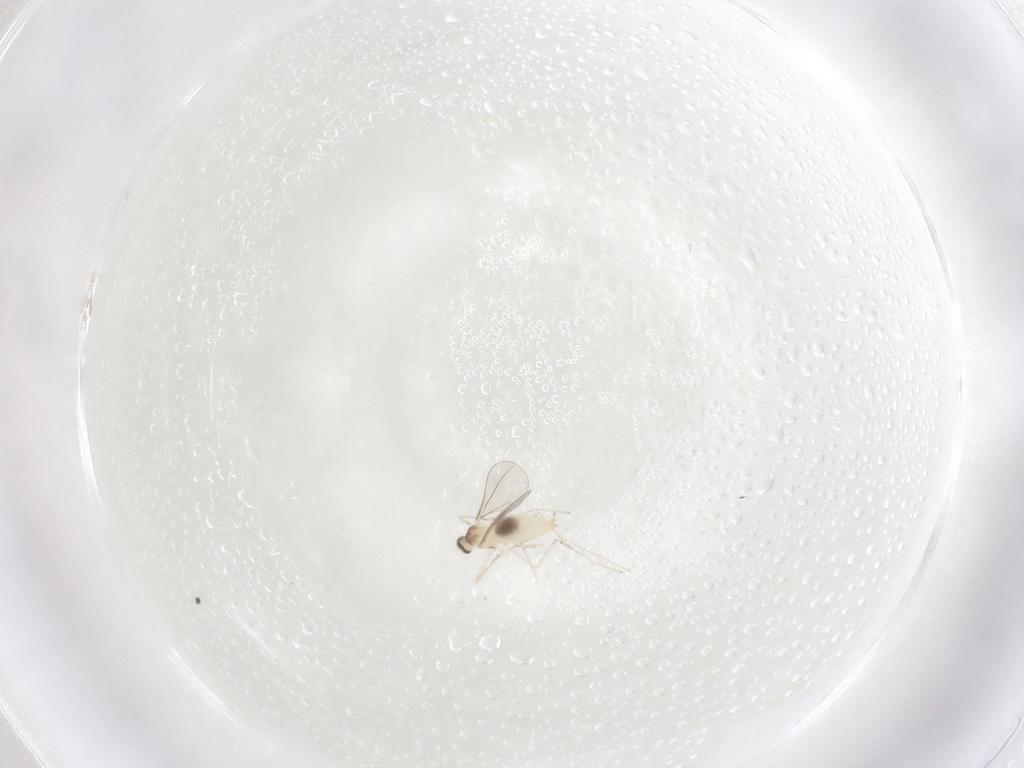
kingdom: Animalia
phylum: Arthropoda
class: Insecta
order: Diptera
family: Dolichopodidae
